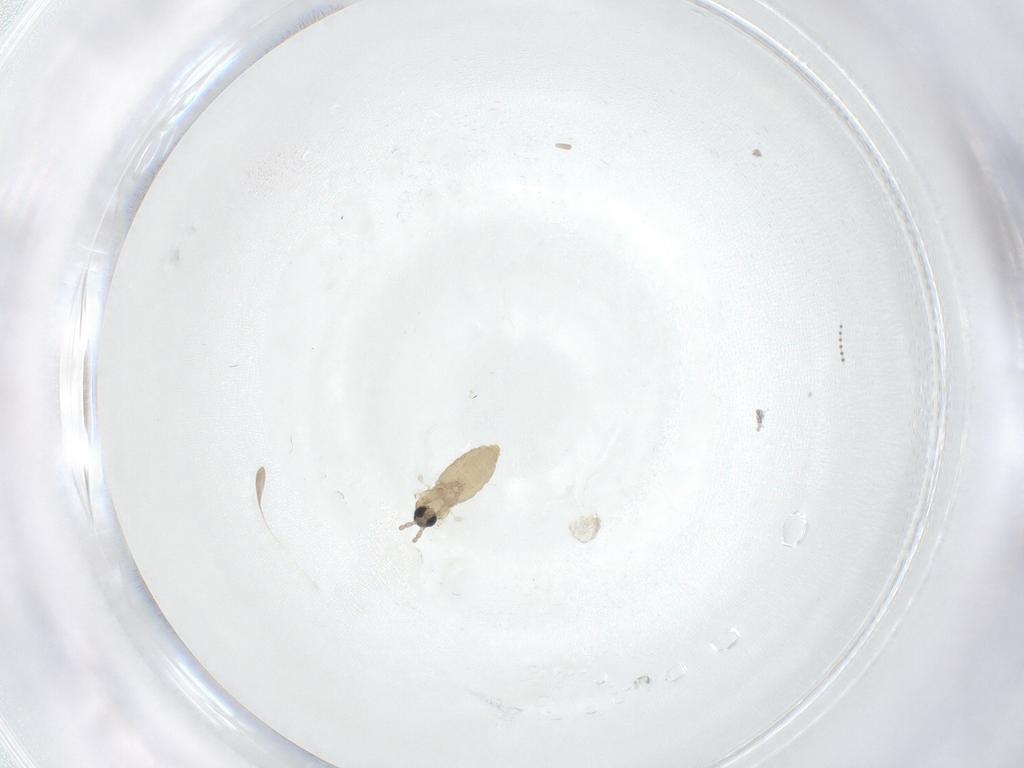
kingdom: Animalia
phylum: Arthropoda
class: Insecta
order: Diptera
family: Cecidomyiidae
